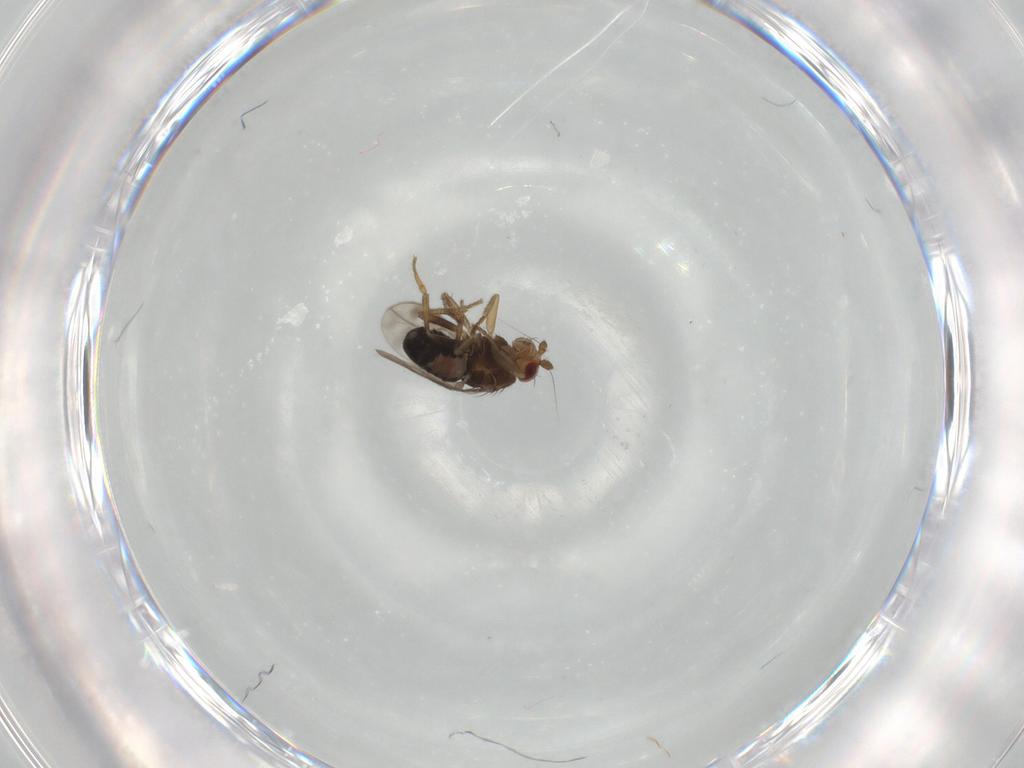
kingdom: Animalia
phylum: Arthropoda
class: Insecta
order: Diptera
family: Sphaeroceridae
